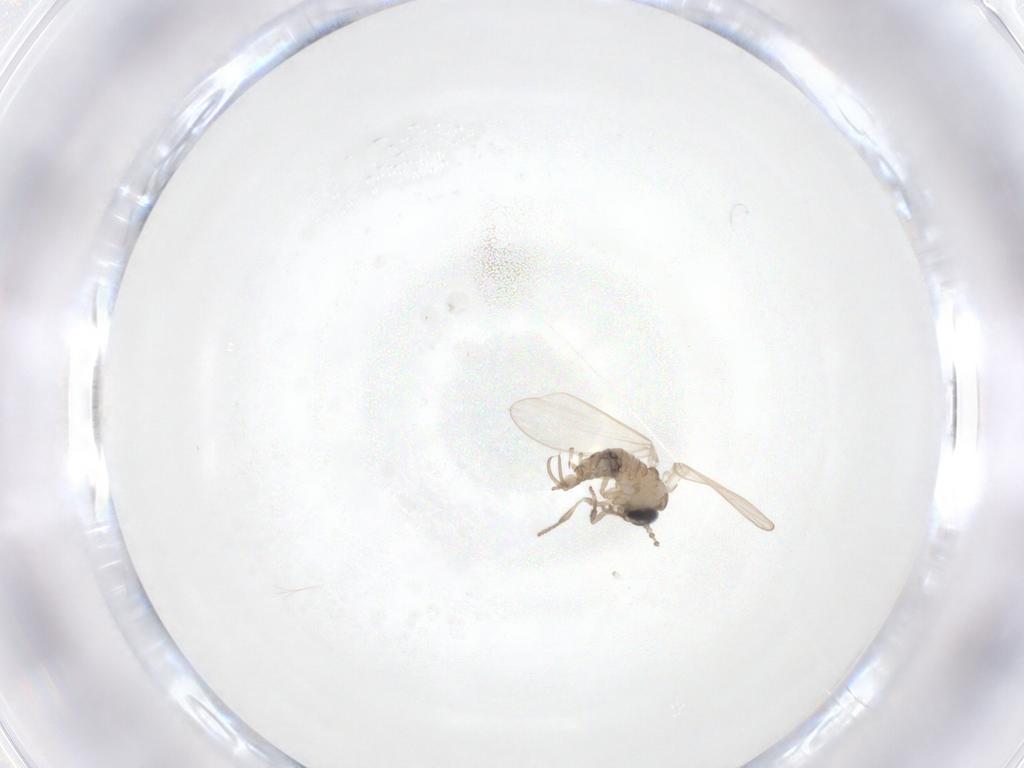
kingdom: Animalia
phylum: Arthropoda
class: Insecta
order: Diptera
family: Psychodidae
